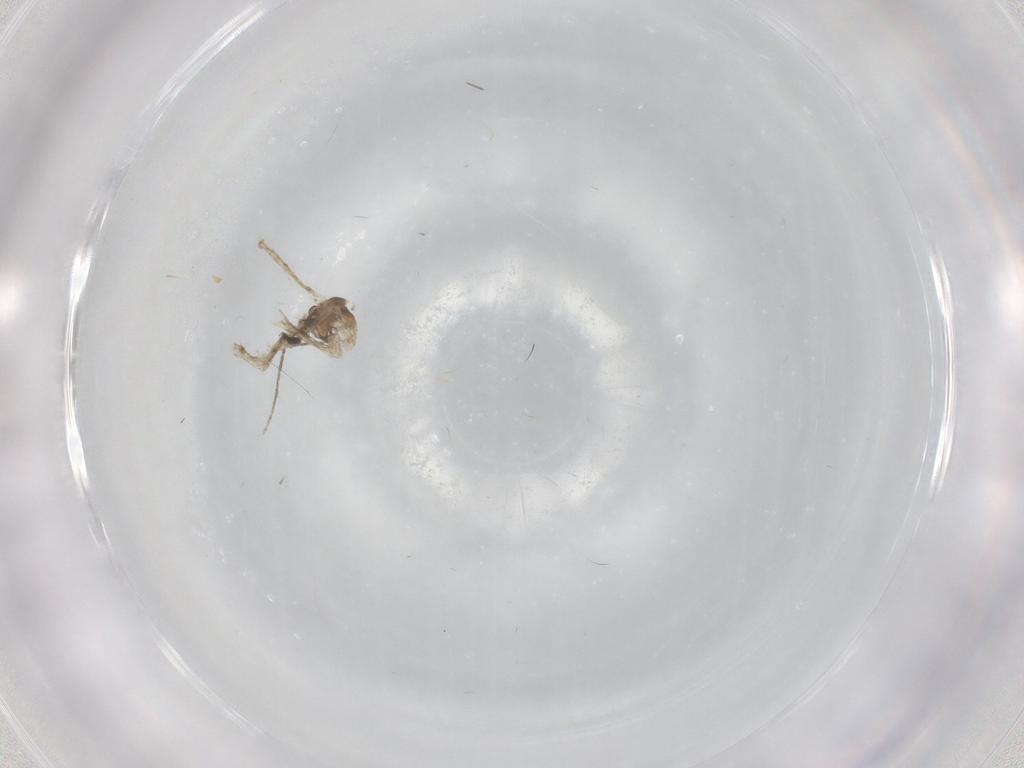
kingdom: Animalia
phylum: Arthropoda
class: Insecta
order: Diptera
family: Chironomidae
